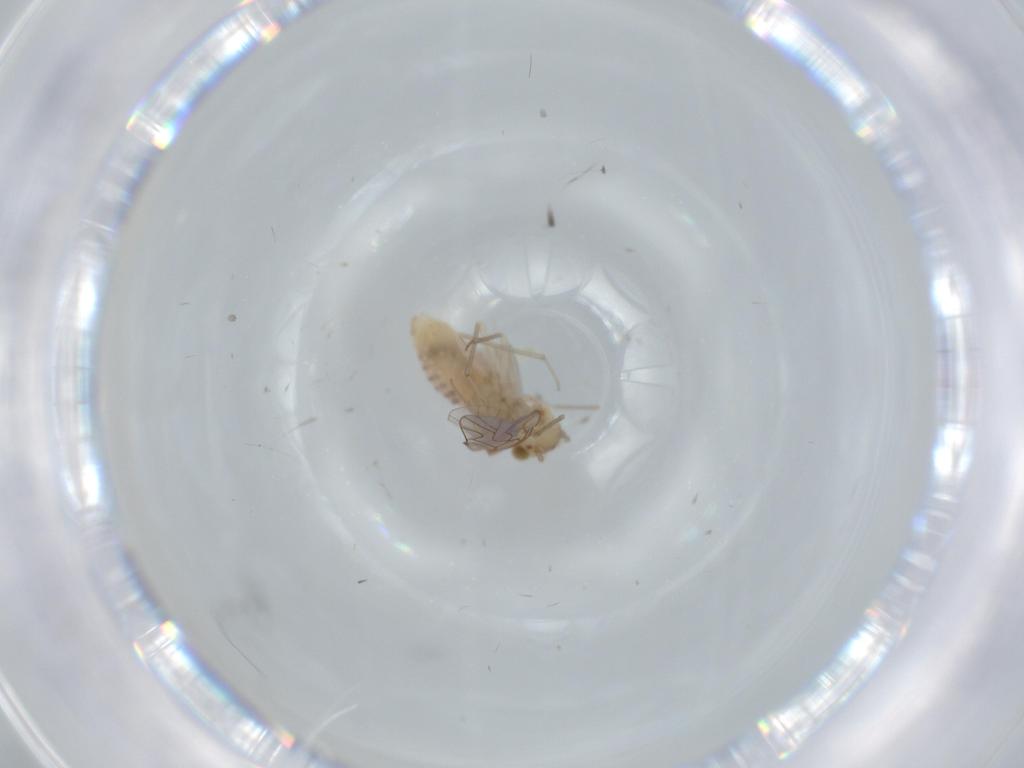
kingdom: Animalia
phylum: Arthropoda
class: Insecta
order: Psocodea
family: Lachesillidae
